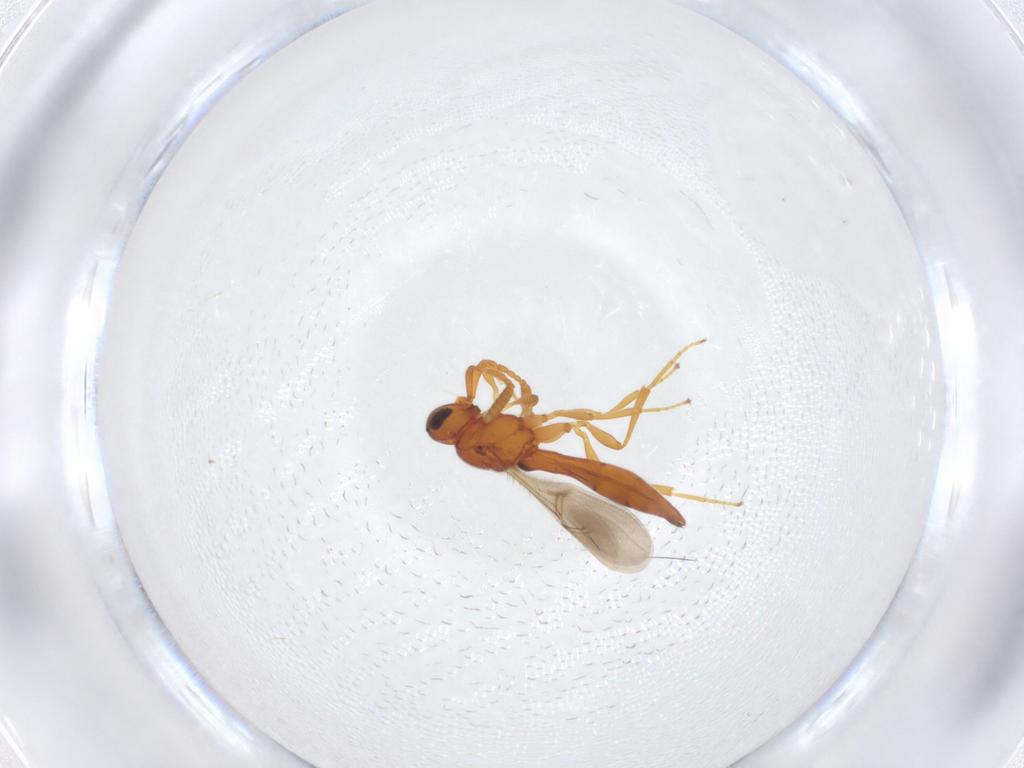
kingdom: Animalia
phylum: Arthropoda
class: Insecta
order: Hymenoptera
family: Scelionidae
